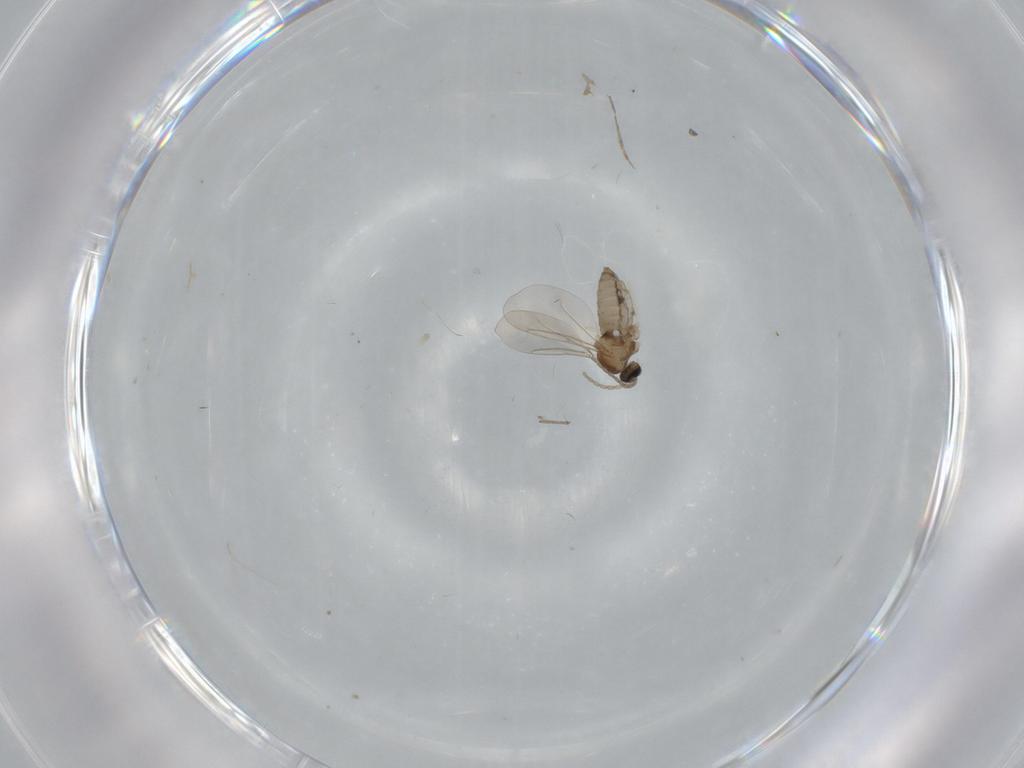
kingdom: Animalia
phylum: Arthropoda
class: Insecta
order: Diptera
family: Cecidomyiidae
